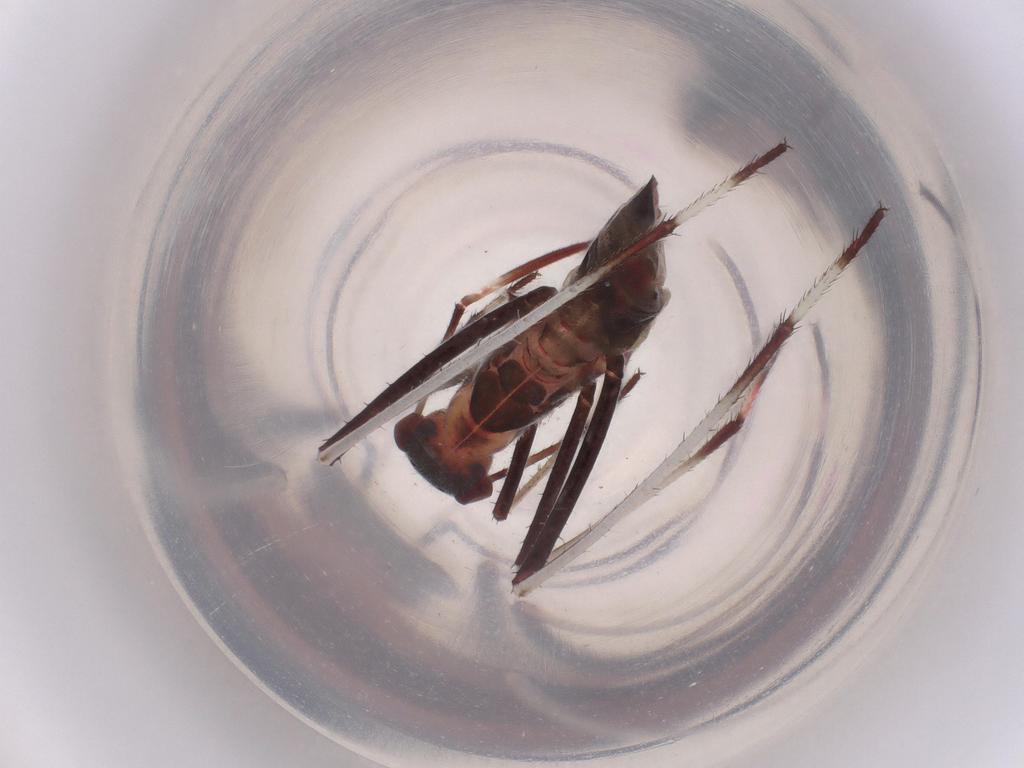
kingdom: Animalia
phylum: Arthropoda
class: Insecta
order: Hemiptera
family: Alydidae
